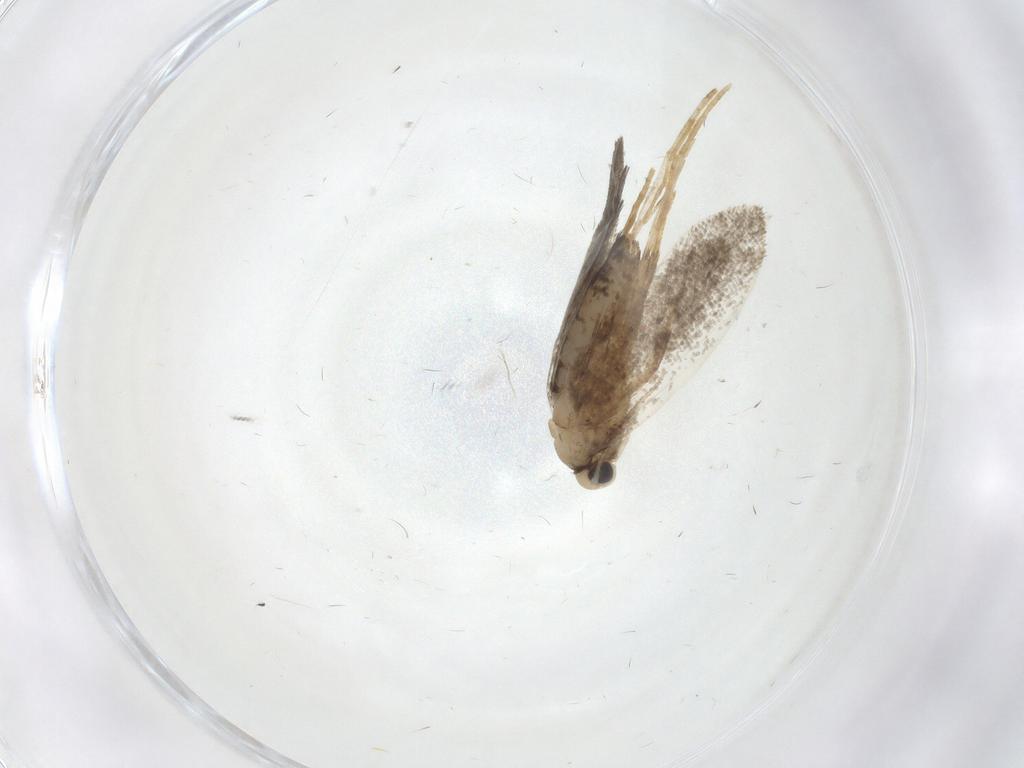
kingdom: Animalia
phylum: Arthropoda
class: Insecta
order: Lepidoptera
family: Psychidae
